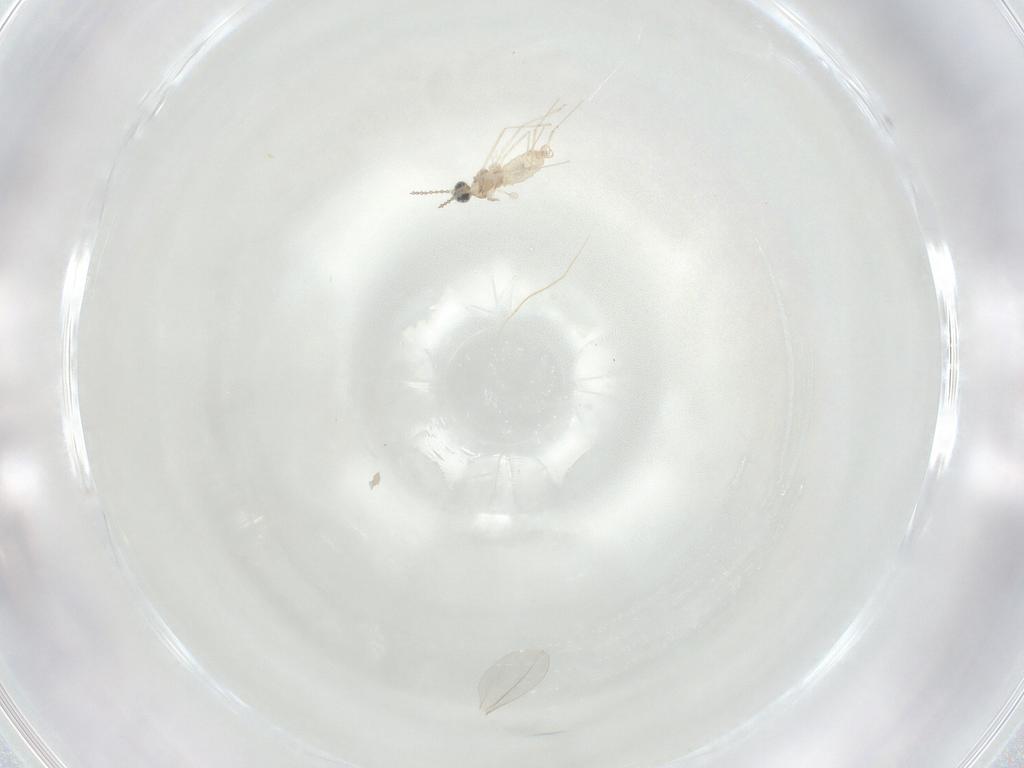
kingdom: Animalia
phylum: Arthropoda
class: Insecta
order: Diptera
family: Cecidomyiidae
